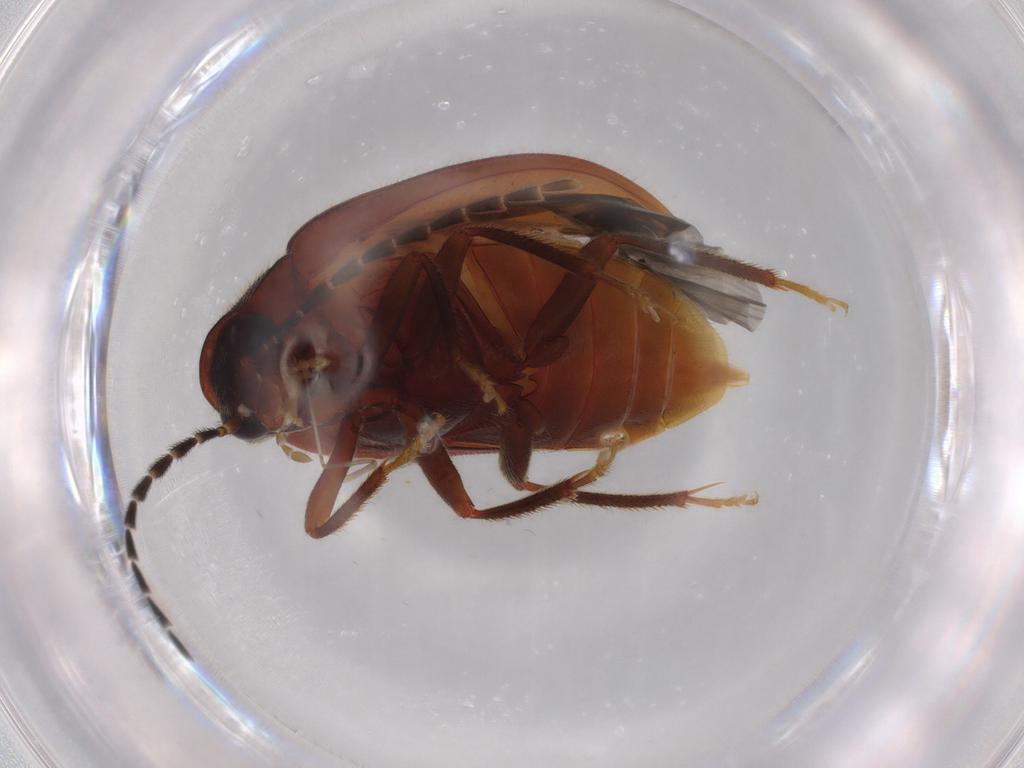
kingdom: Animalia
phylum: Arthropoda
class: Insecta
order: Coleoptera
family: Ptilodactylidae
